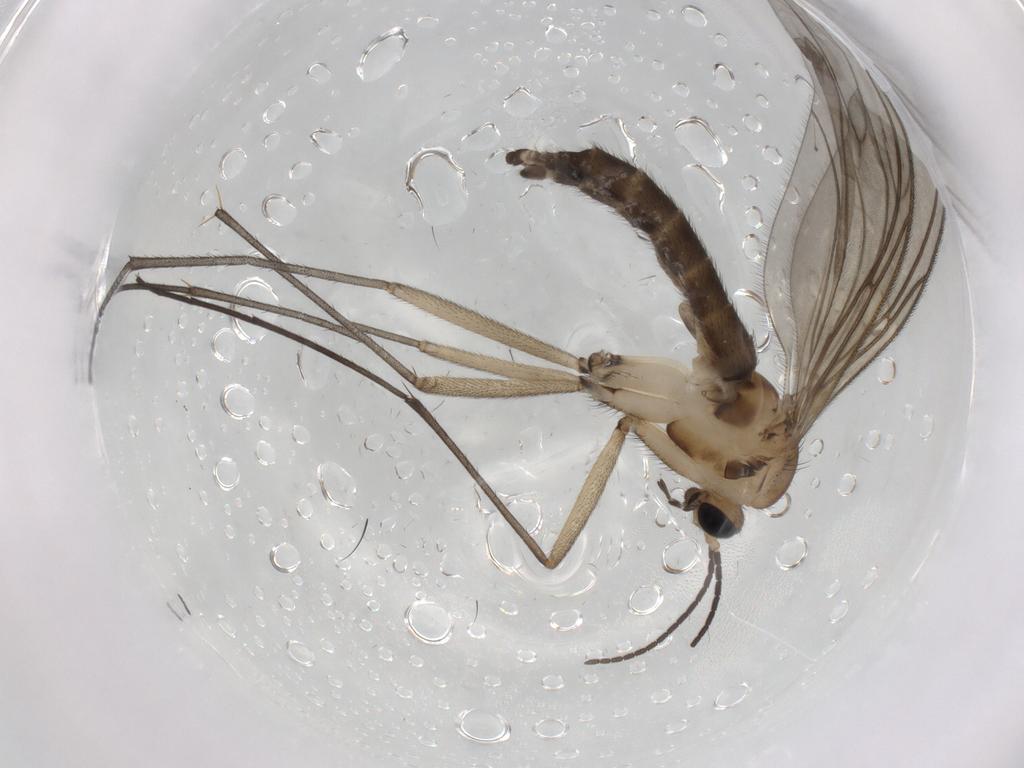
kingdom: Animalia
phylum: Arthropoda
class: Insecta
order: Diptera
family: Sciaridae
